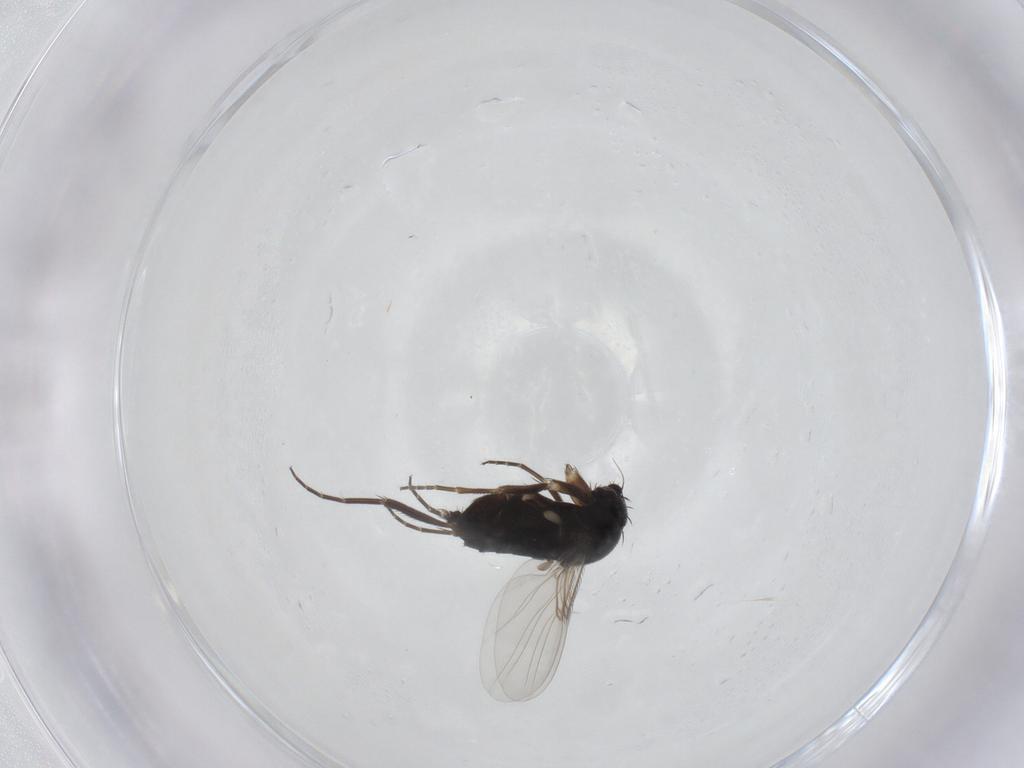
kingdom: Animalia
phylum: Arthropoda
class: Insecta
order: Diptera
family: Phoridae
